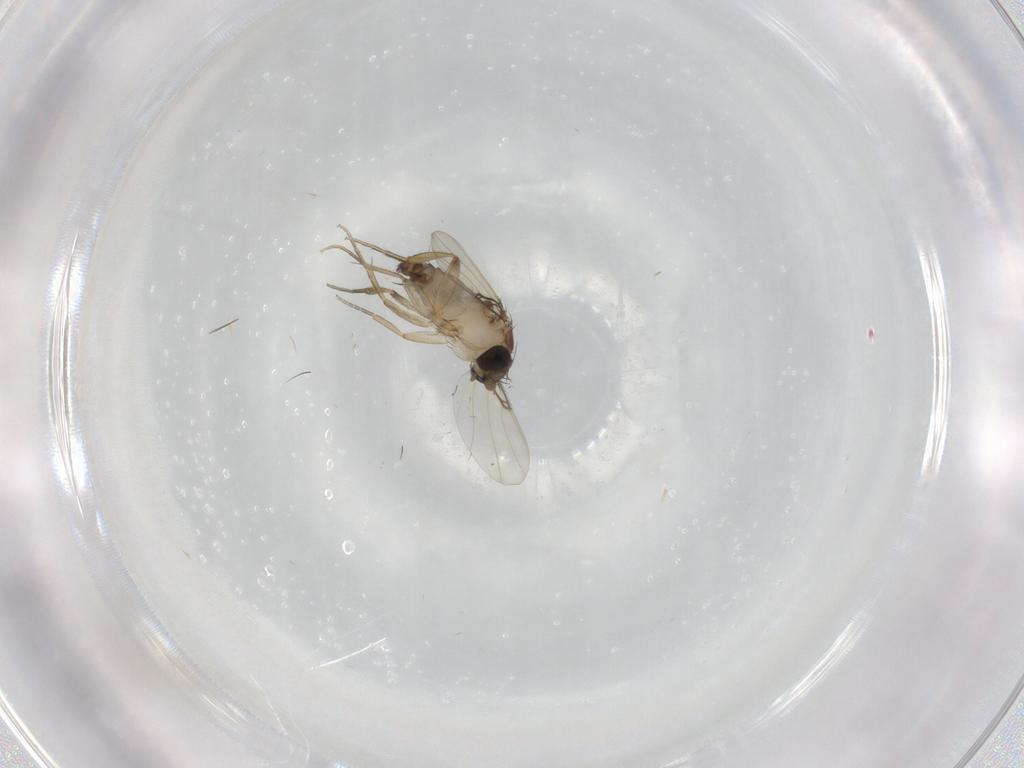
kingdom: Animalia
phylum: Arthropoda
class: Insecta
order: Diptera
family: Phoridae
